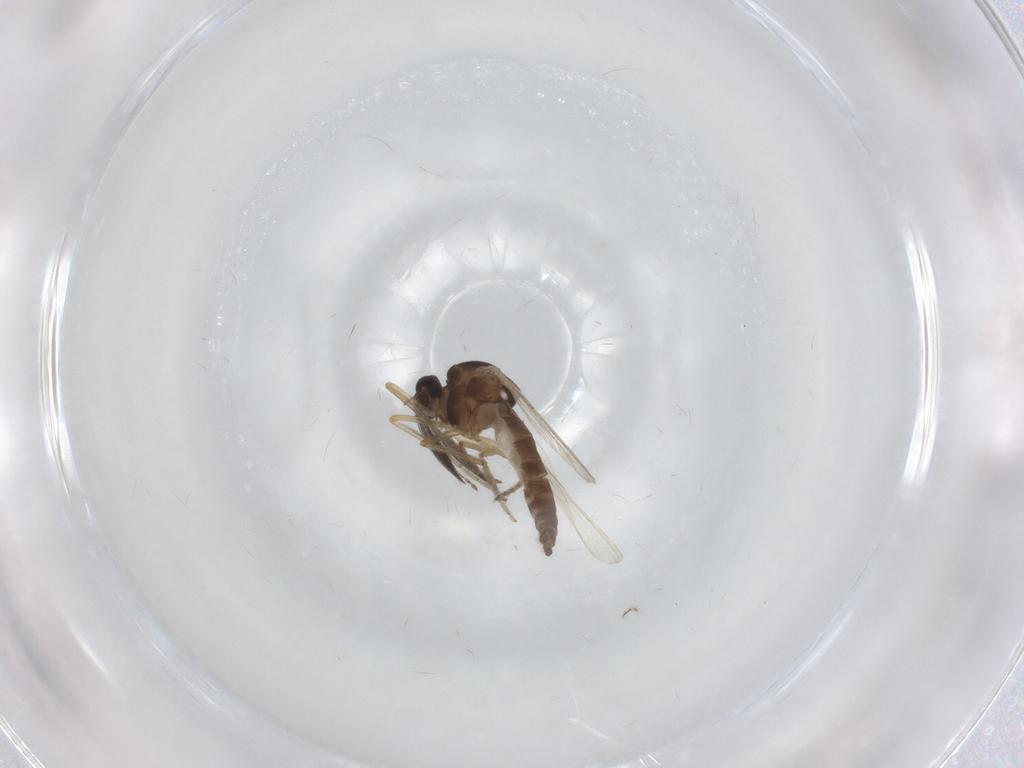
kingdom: Animalia
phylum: Arthropoda
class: Insecta
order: Diptera
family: Ceratopogonidae
